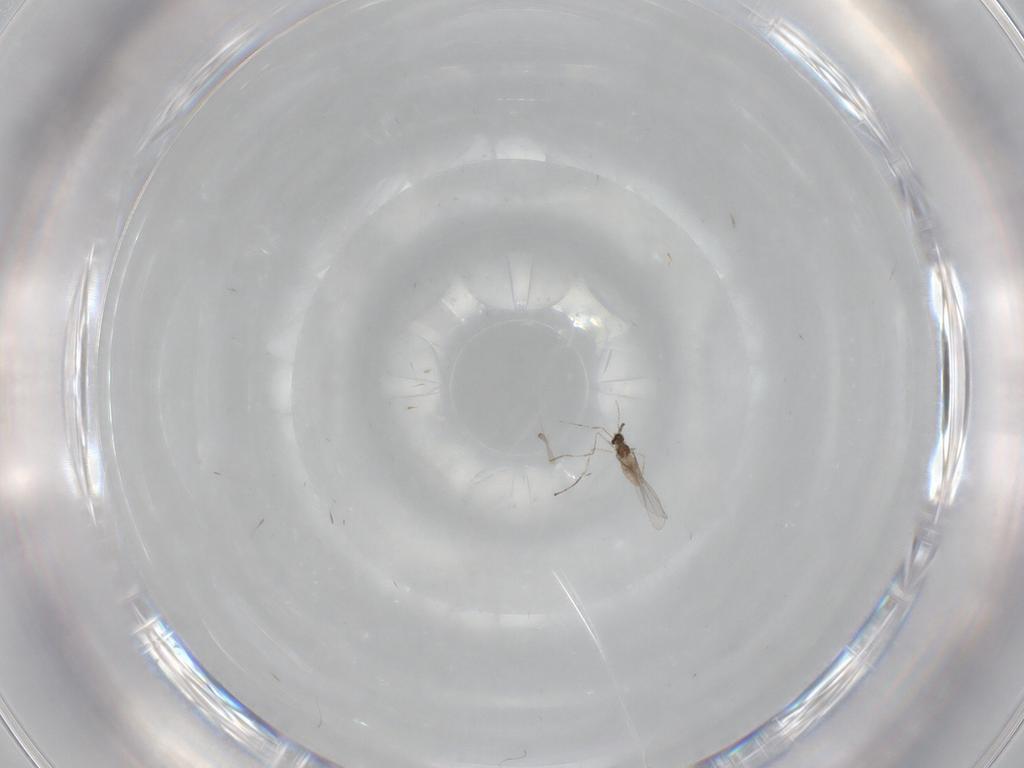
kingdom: Animalia
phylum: Arthropoda
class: Insecta
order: Diptera
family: Cecidomyiidae
